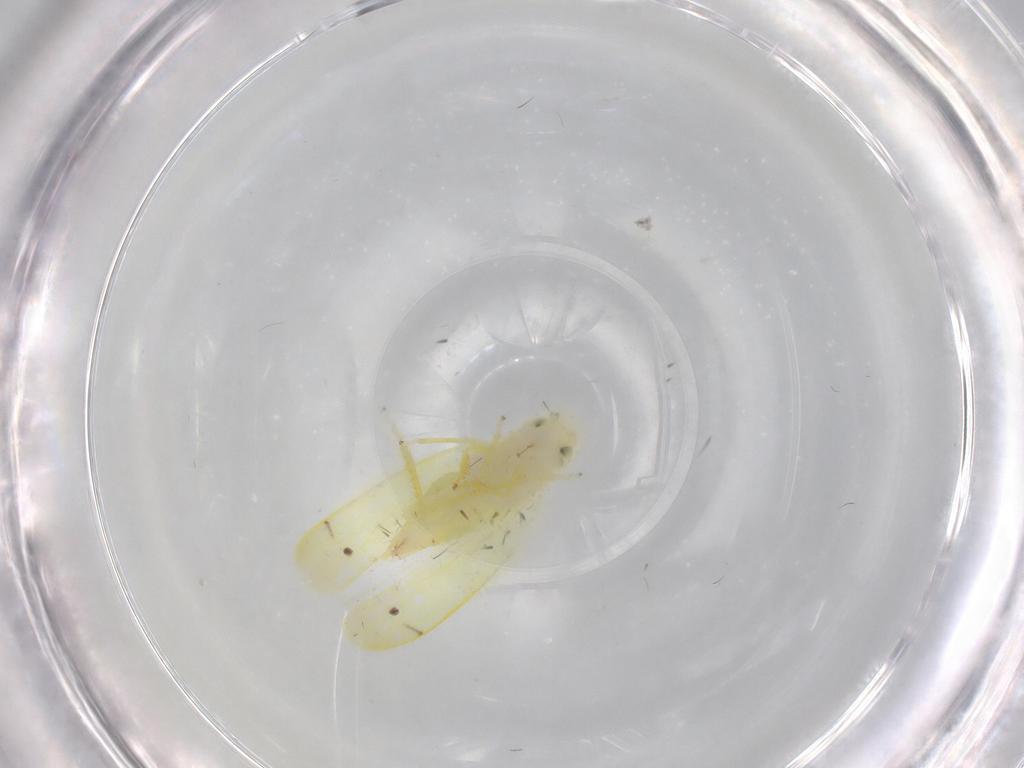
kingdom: Animalia
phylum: Arthropoda
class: Insecta
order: Hemiptera
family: Cicadellidae
